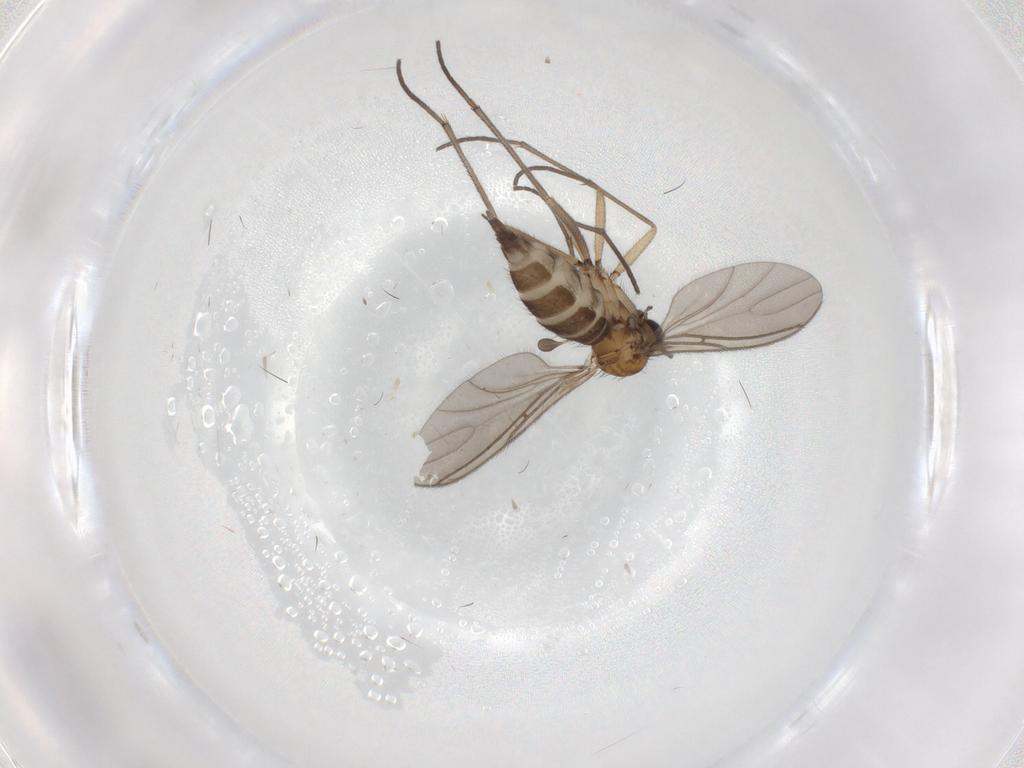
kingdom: Animalia
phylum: Arthropoda
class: Insecta
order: Diptera
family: Sciaridae
